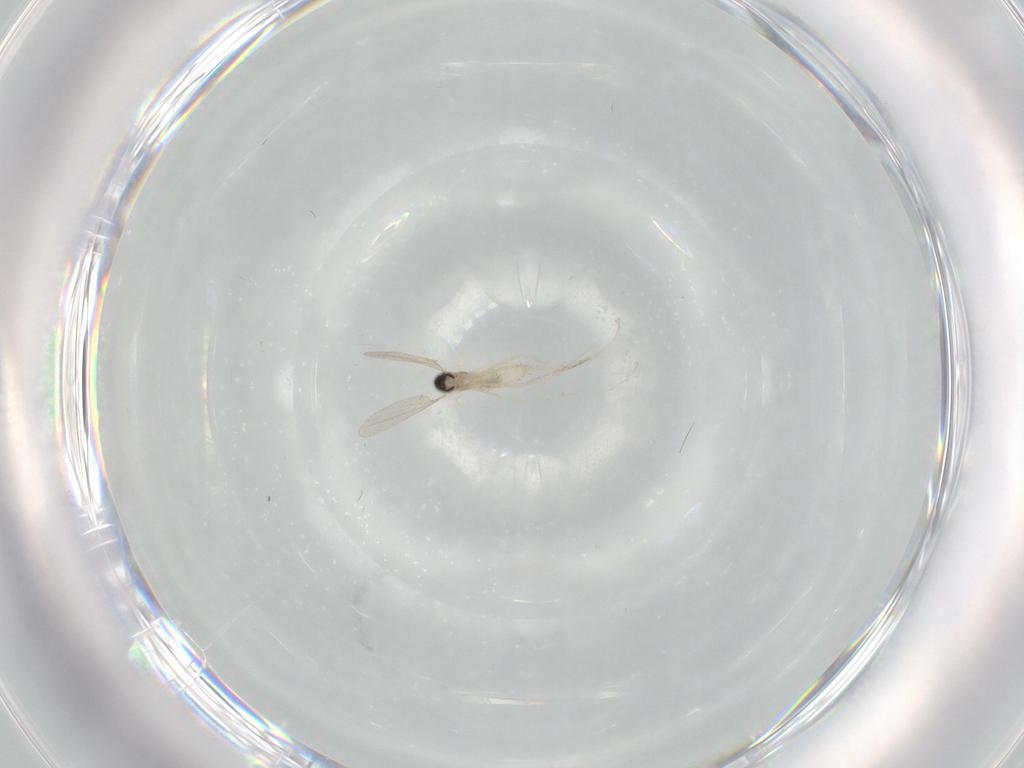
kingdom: Animalia
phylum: Arthropoda
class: Insecta
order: Diptera
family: Cecidomyiidae
